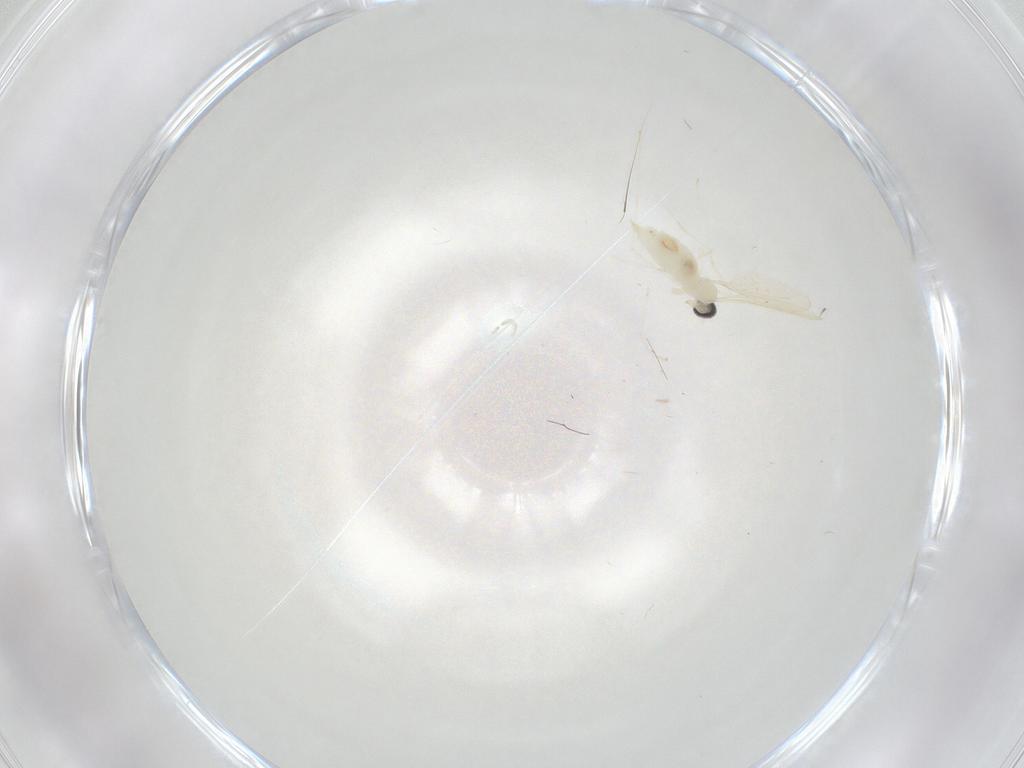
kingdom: Animalia
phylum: Arthropoda
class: Insecta
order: Diptera
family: Cecidomyiidae
